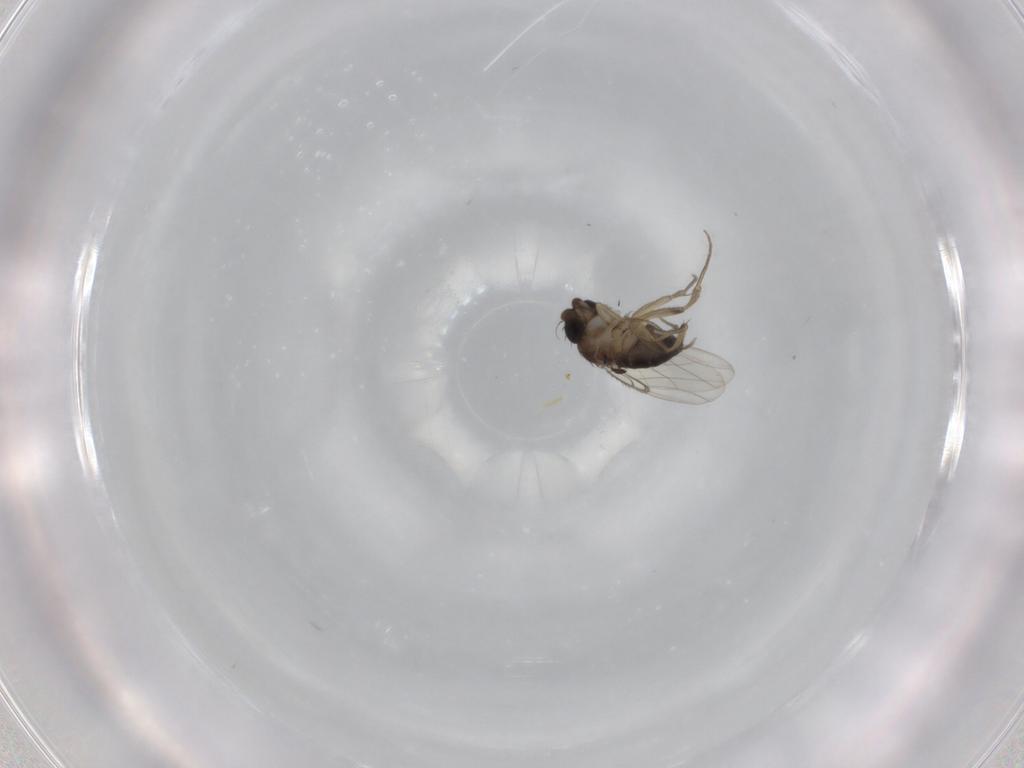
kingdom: Animalia
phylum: Arthropoda
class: Insecta
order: Diptera
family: Phoridae
